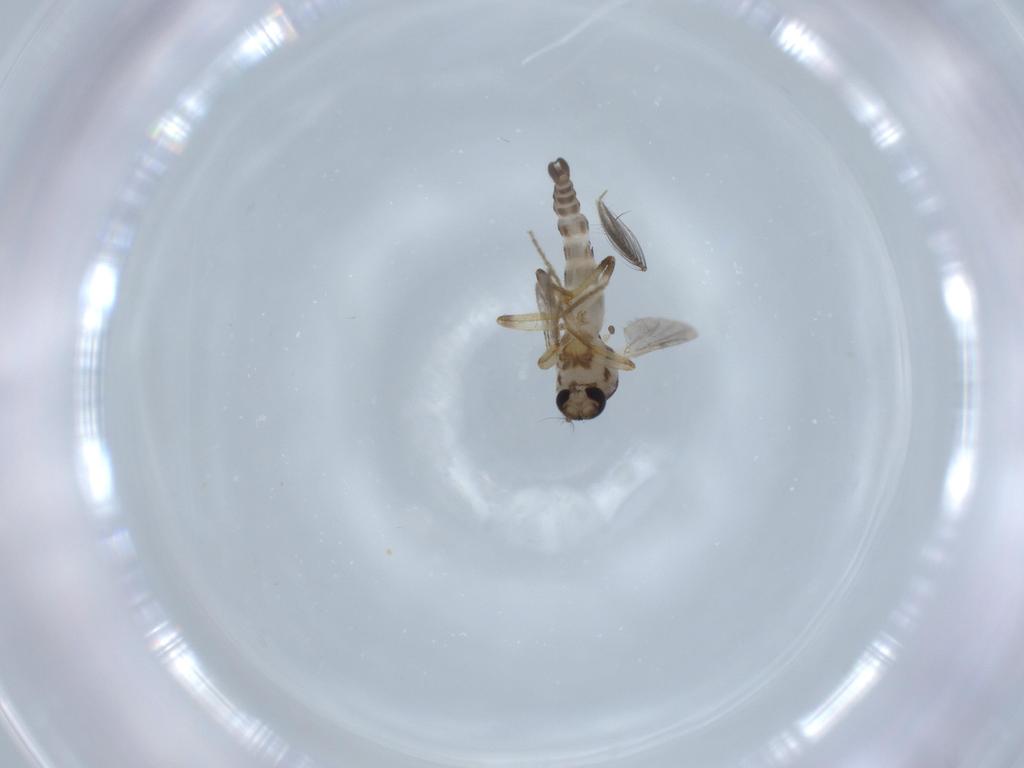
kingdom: Animalia
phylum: Arthropoda
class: Insecta
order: Diptera
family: Ceratopogonidae
